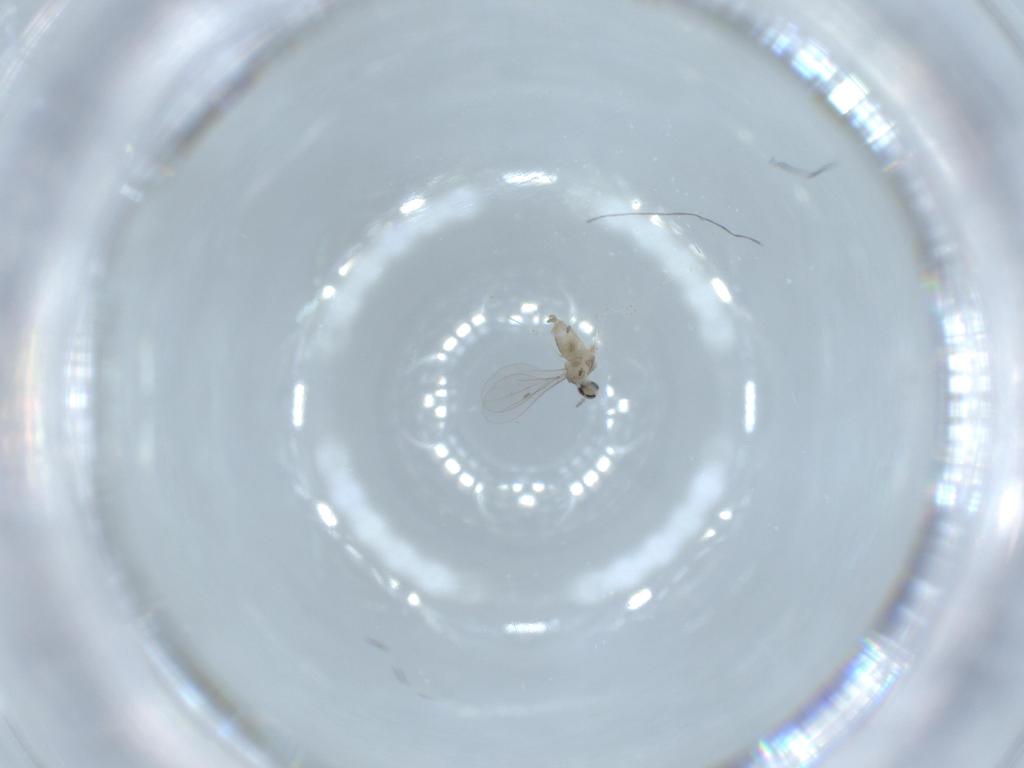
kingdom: Animalia
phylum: Arthropoda
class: Insecta
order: Diptera
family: Cecidomyiidae
